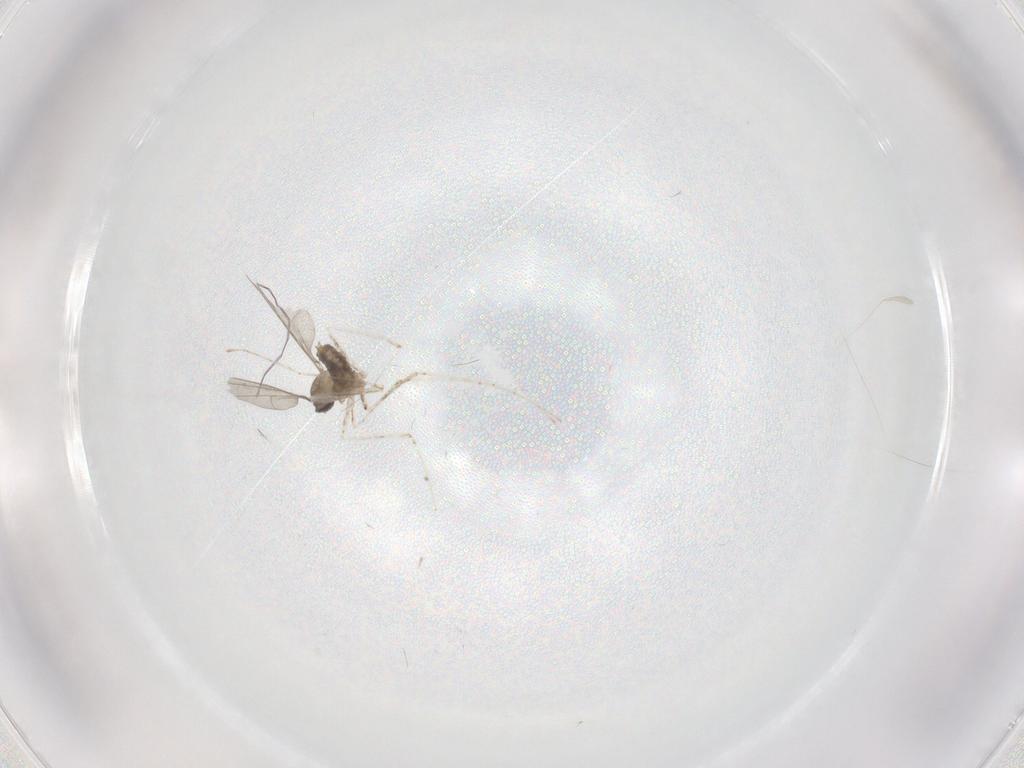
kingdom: Animalia
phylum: Arthropoda
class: Insecta
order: Diptera
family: Cecidomyiidae
